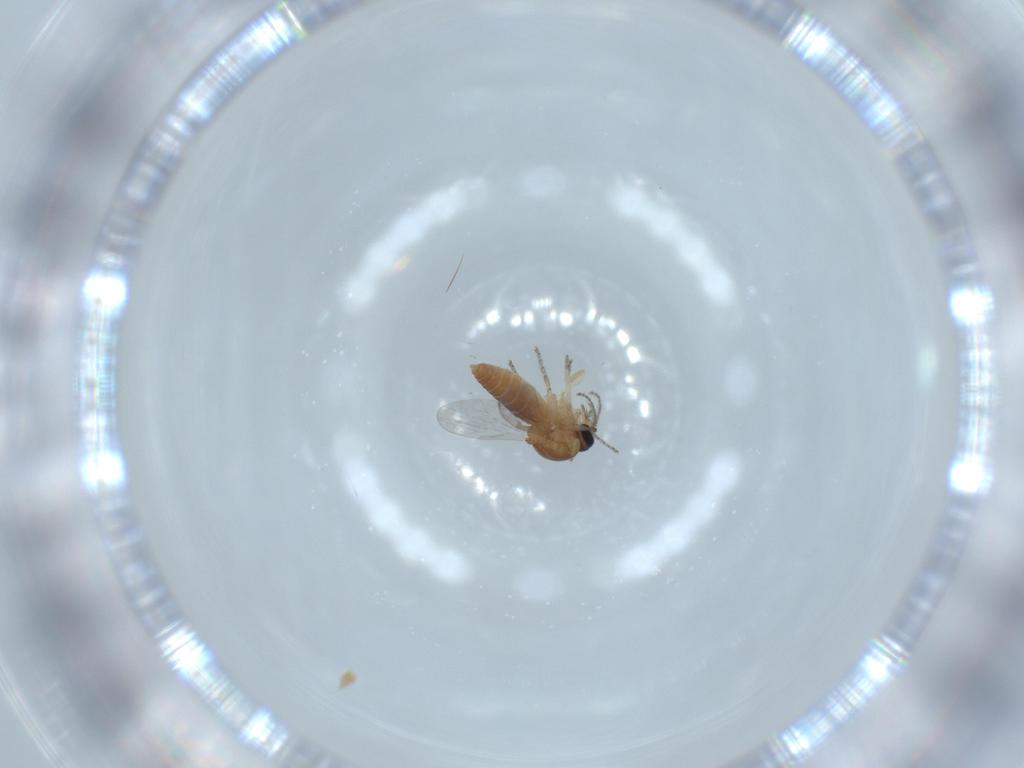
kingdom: Animalia
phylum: Arthropoda
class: Insecta
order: Diptera
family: Ceratopogonidae
